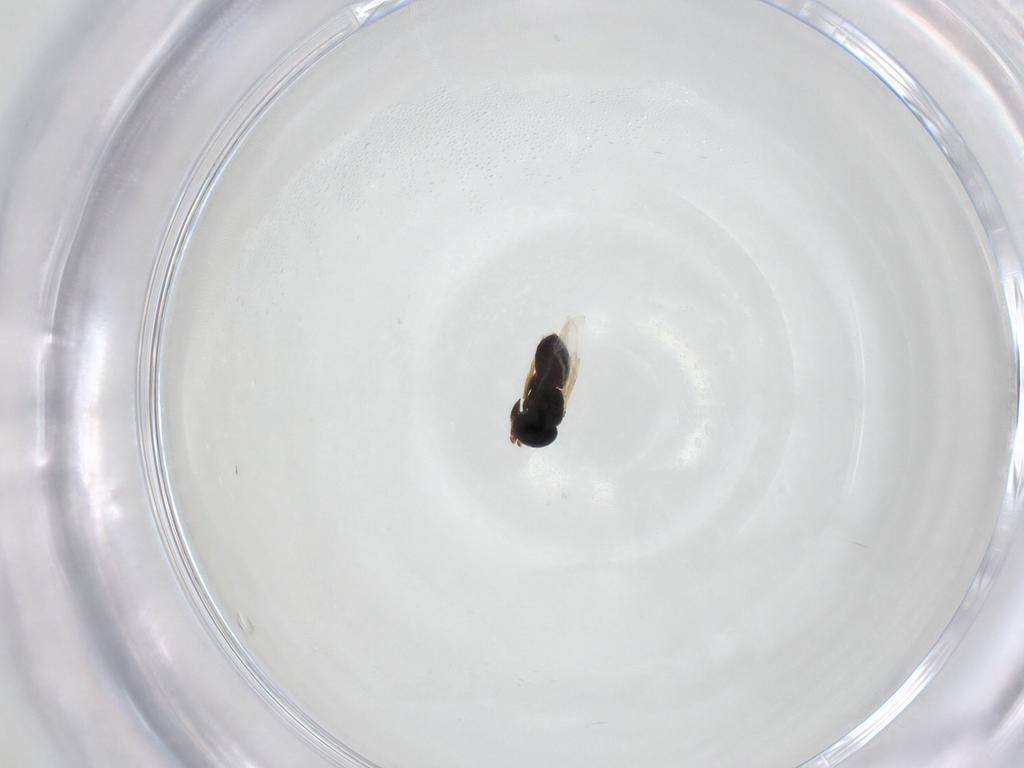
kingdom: Animalia
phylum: Arthropoda
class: Insecta
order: Hymenoptera
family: Scelionidae
